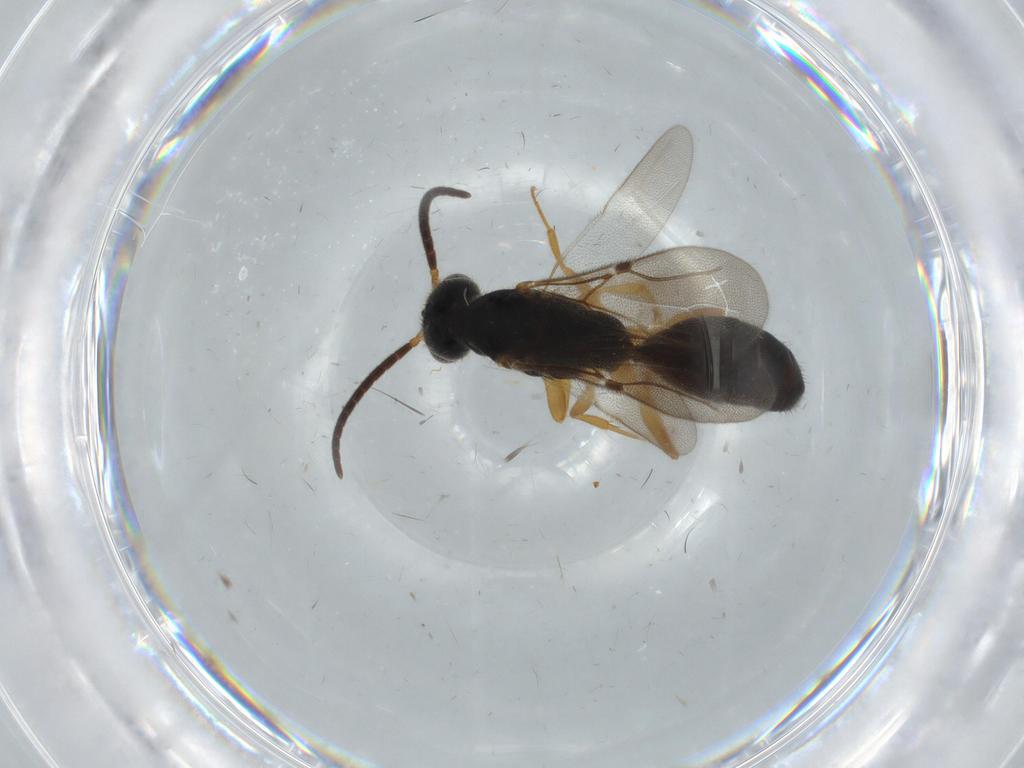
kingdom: Animalia
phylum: Arthropoda
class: Insecta
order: Hymenoptera
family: Bethylidae
